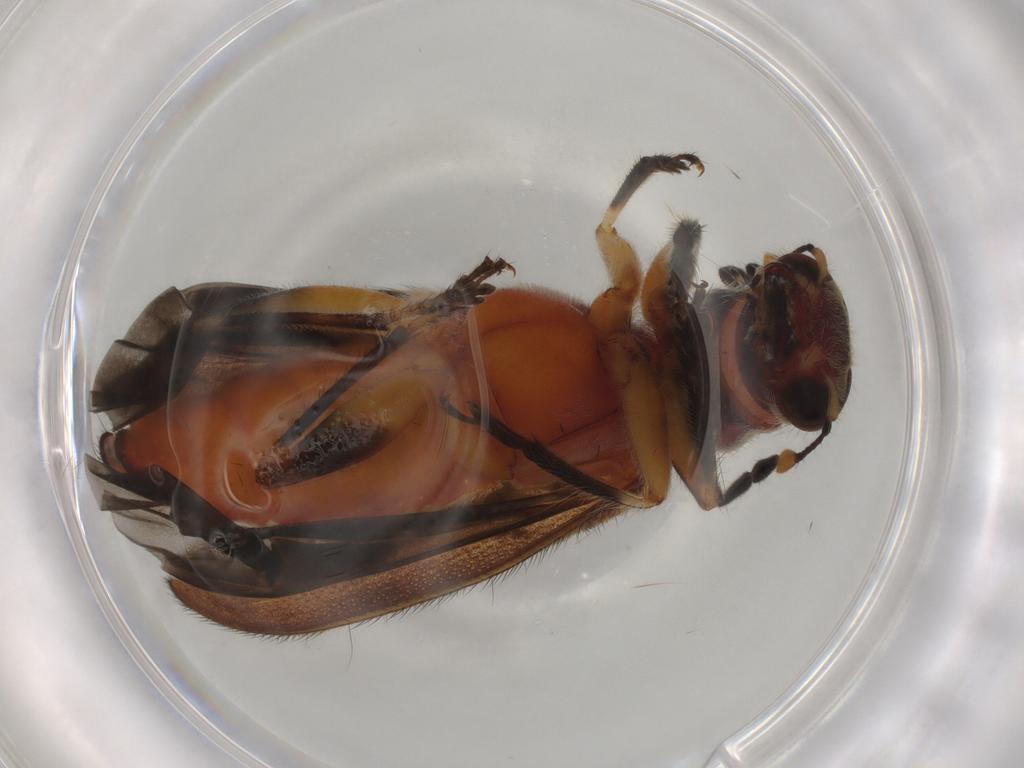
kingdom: Animalia
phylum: Arthropoda
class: Insecta
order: Coleoptera
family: Cleridae
